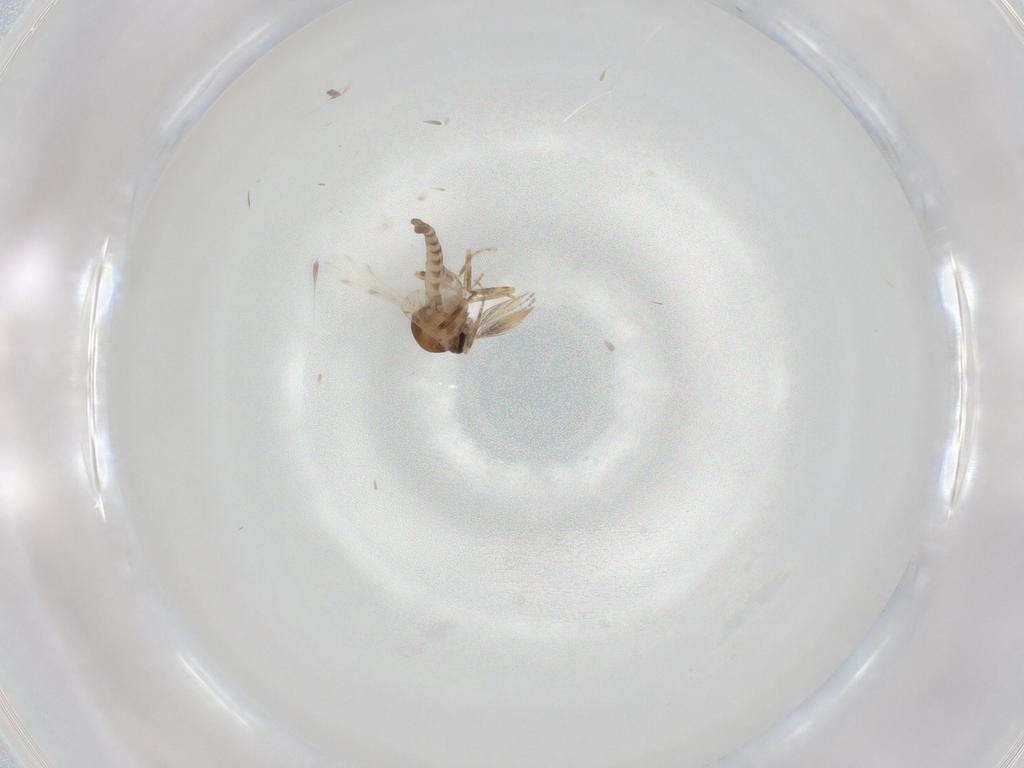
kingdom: Animalia
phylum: Arthropoda
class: Insecta
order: Diptera
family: Ceratopogonidae
